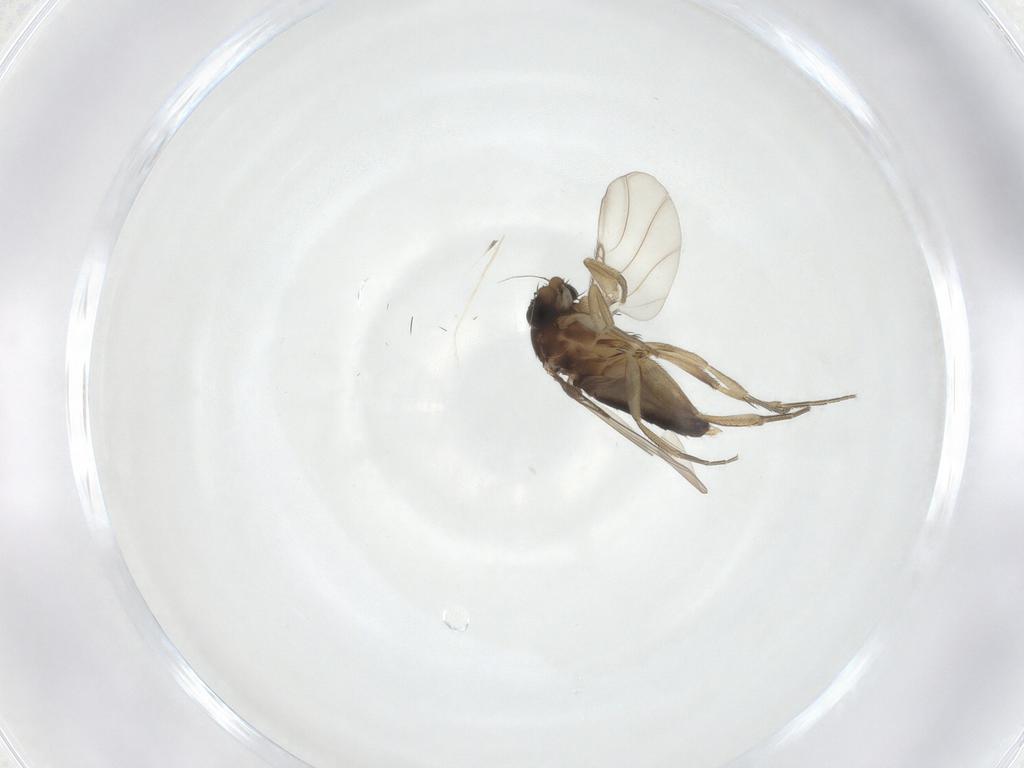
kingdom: Animalia
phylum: Arthropoda
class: Insecta
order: Diptera
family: Phoridae
